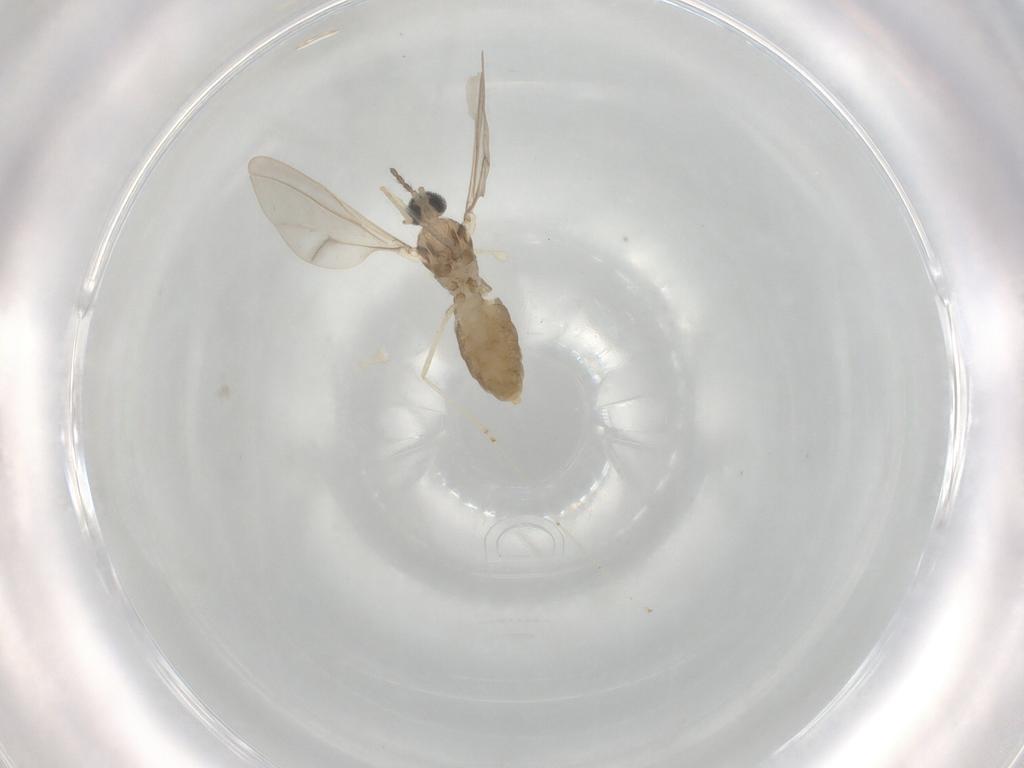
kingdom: Animalia
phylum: Arthropoda
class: Insecta
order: Diptera
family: Cecidomyiidae
